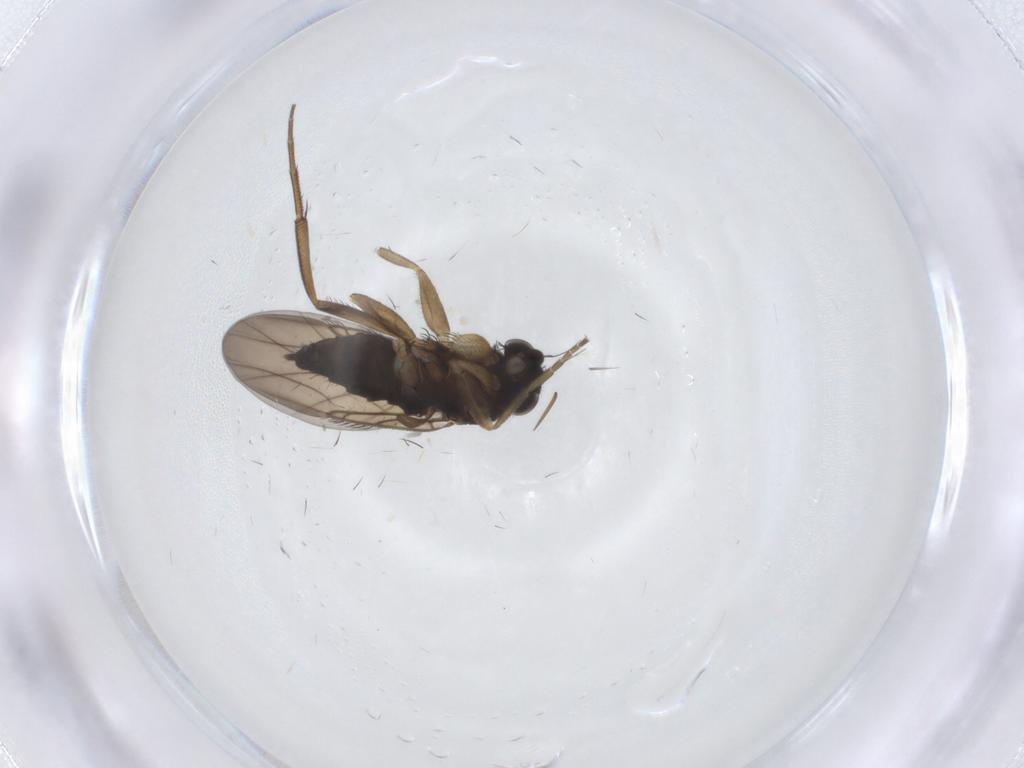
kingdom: Animalia
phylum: Arthropoda
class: Insecta
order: Diptera
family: Phoridae
